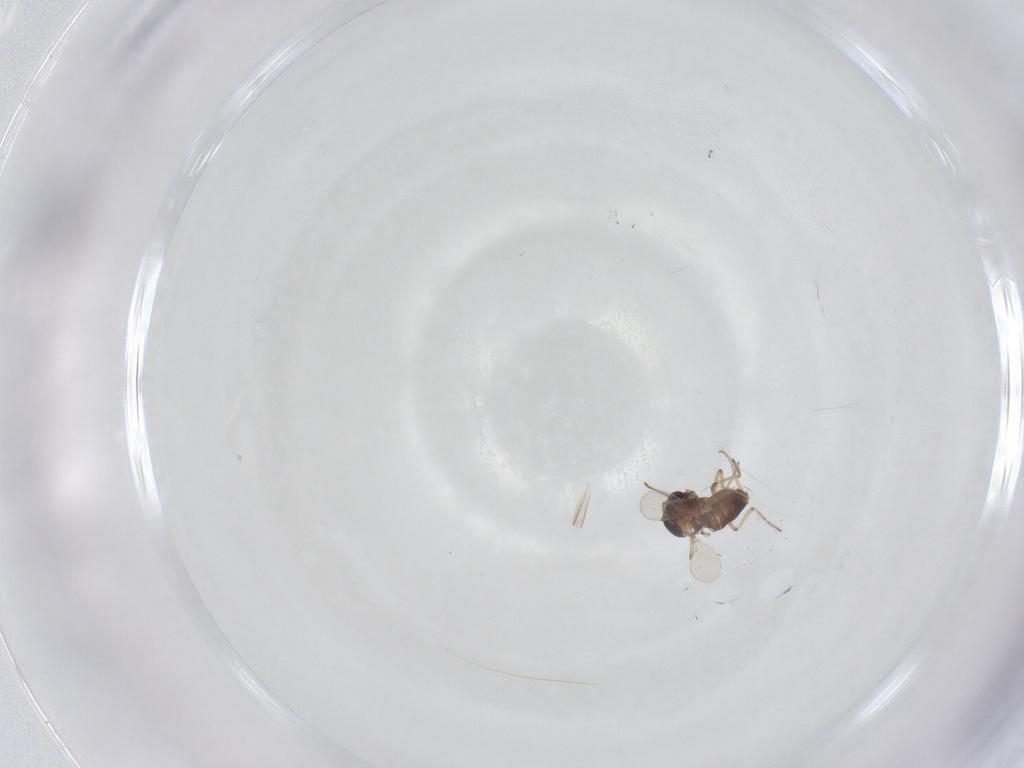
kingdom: Animalia
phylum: Arthropoda
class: Insecta
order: Diptera
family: Ceratopogonidae
